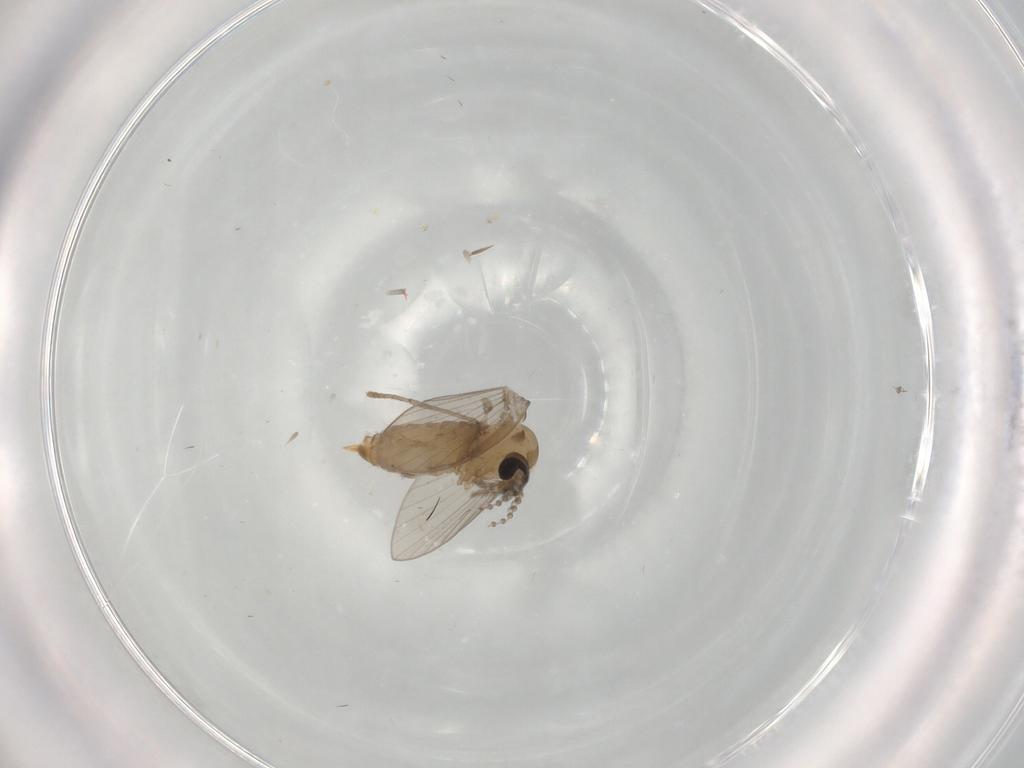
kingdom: Animalia
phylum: Arthropoda
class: Insecta
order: Diptera
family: Psychodidae
